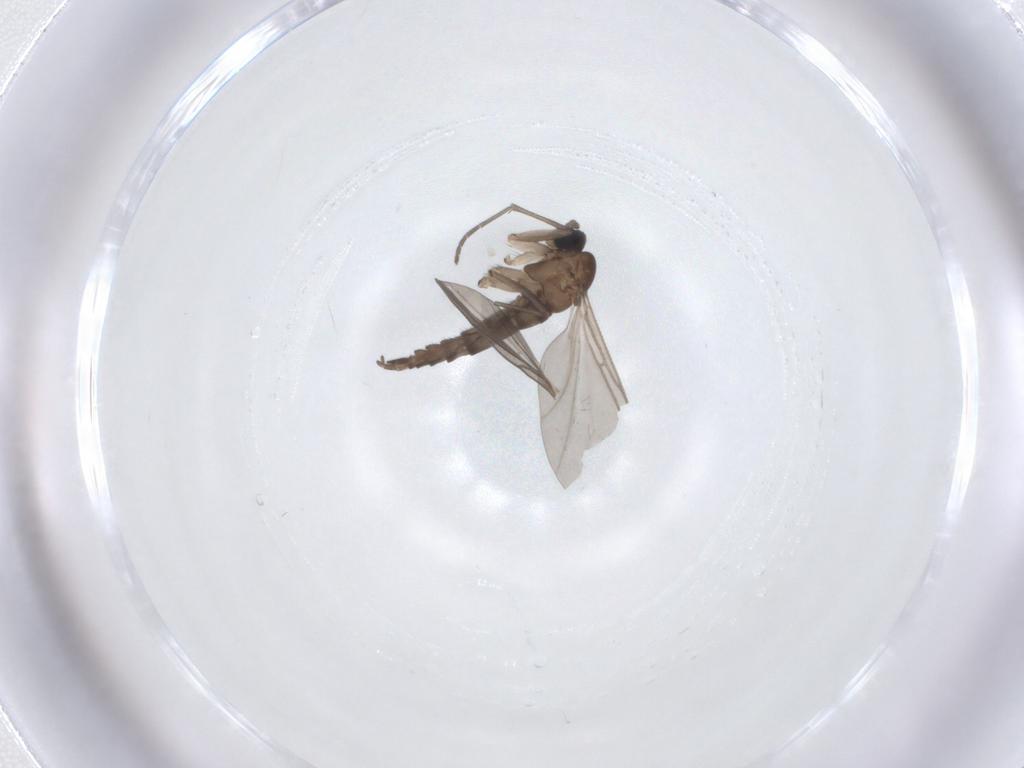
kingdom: Animalia
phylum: Arthropoda
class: Insecta
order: Diptera
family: Sciaridae
